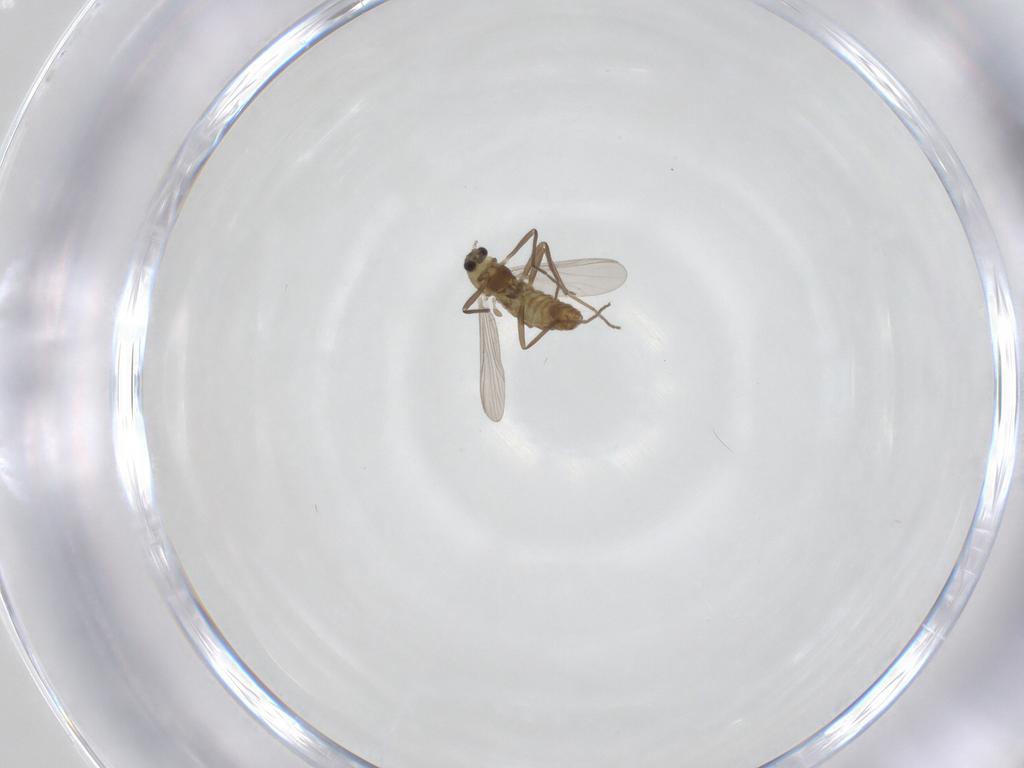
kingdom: Animalia
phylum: Arthropoda
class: Insecta
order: Diptera
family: Chironomidae
